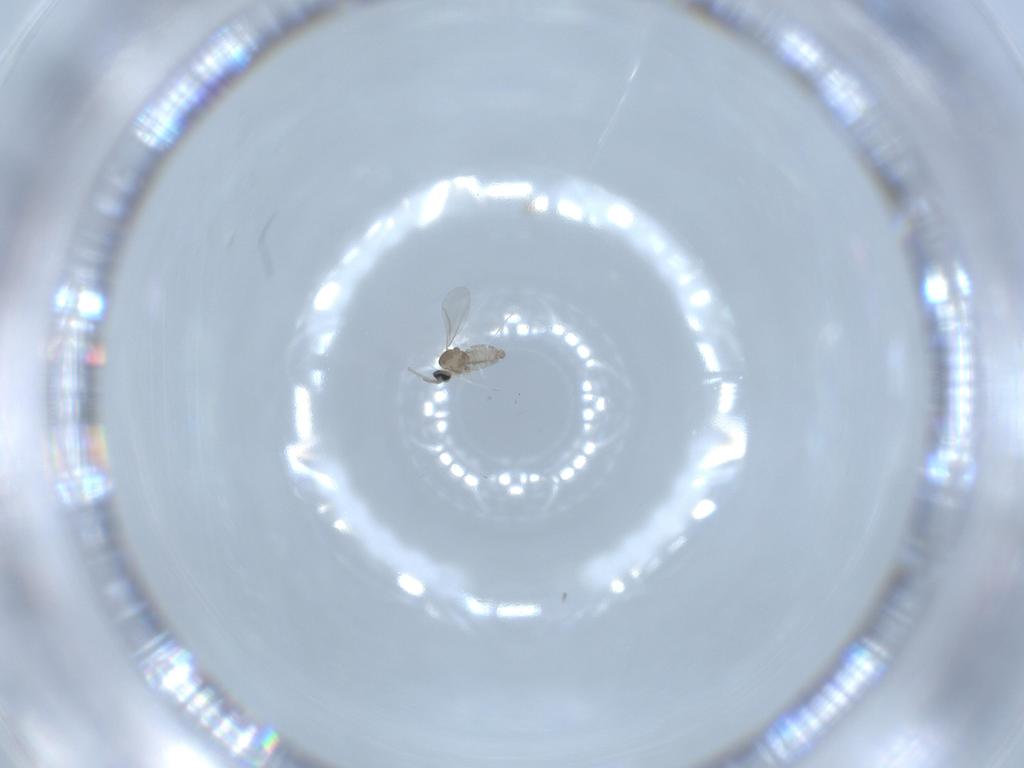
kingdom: Animalia
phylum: Arthropoda
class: Insecta
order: Diptera
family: Cecidomyiidae
